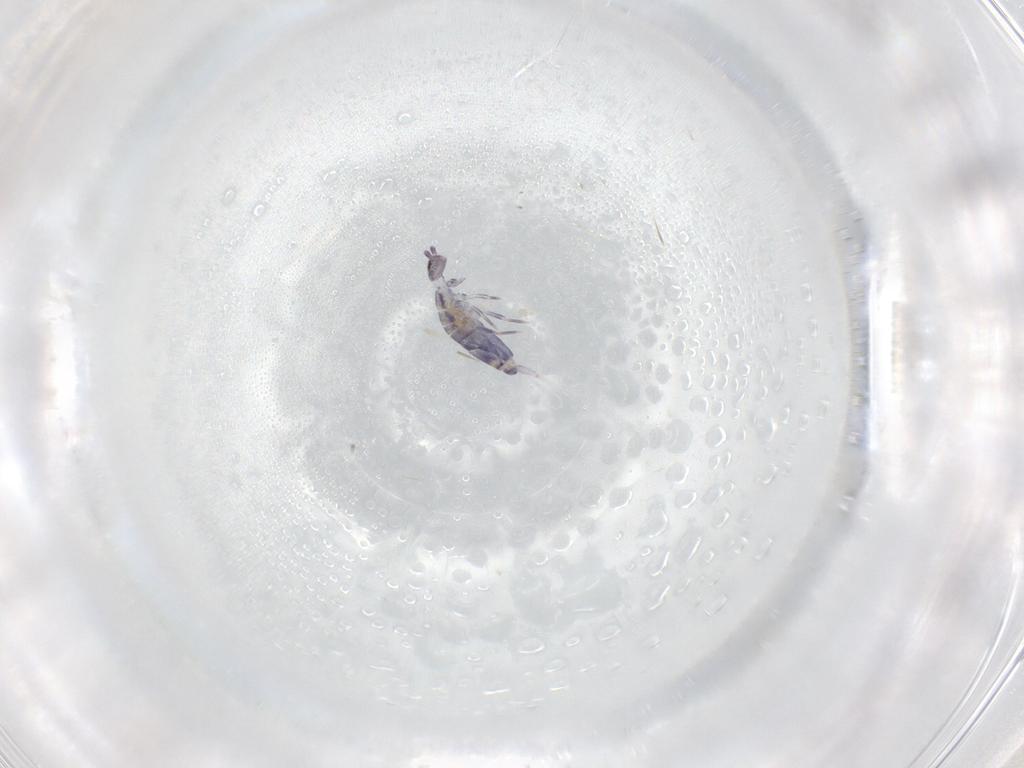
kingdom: Animalia
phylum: Arthropoda
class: Collembola
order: Entomobryomorpha
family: Entomobryidae
